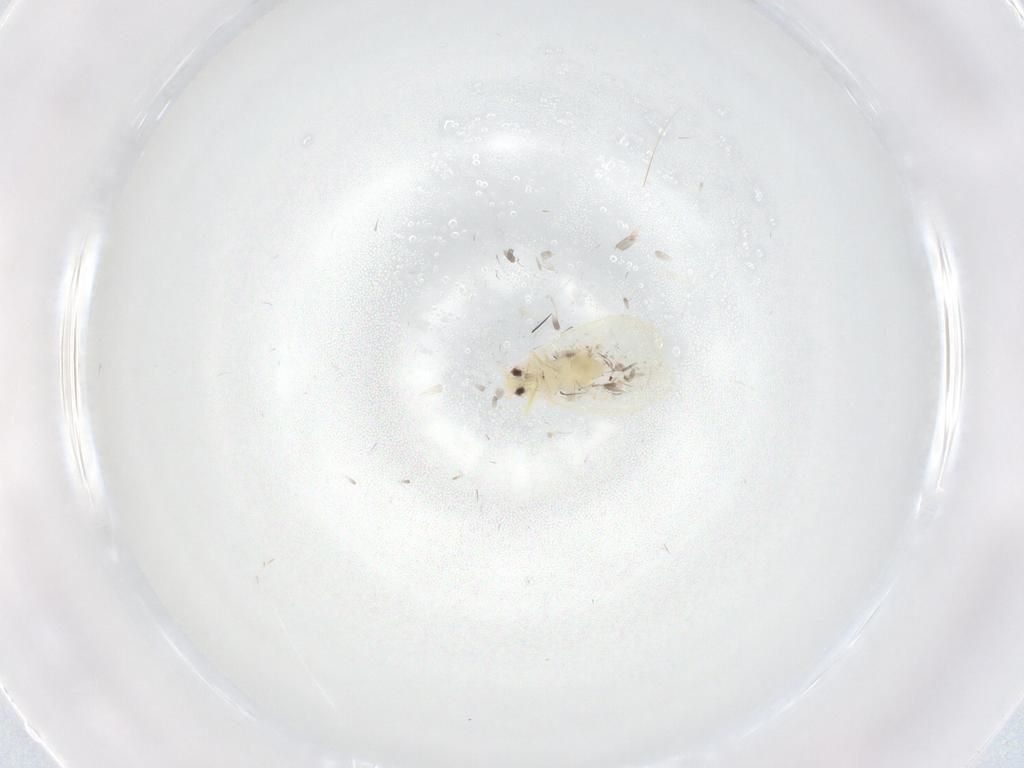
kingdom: Animalia
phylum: Arthropoda
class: Insecta
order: Hemiptera
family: Aleyrodidae
